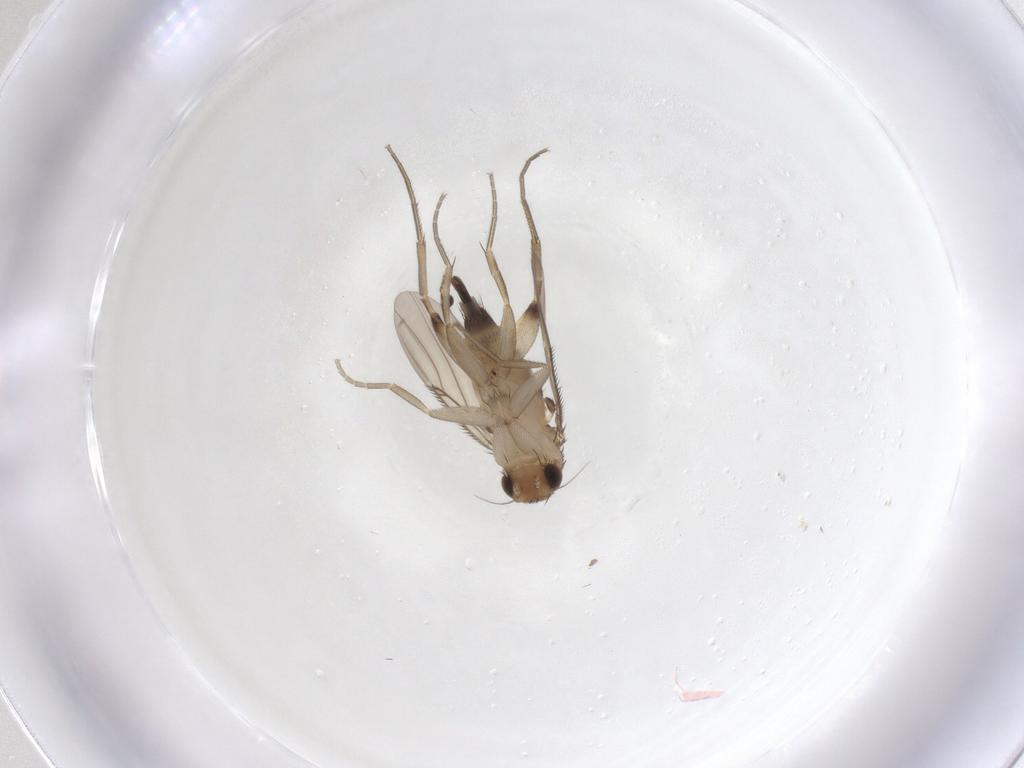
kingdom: Animalia
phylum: Arthropoda
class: Insecta
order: Diptera
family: Phoridae
